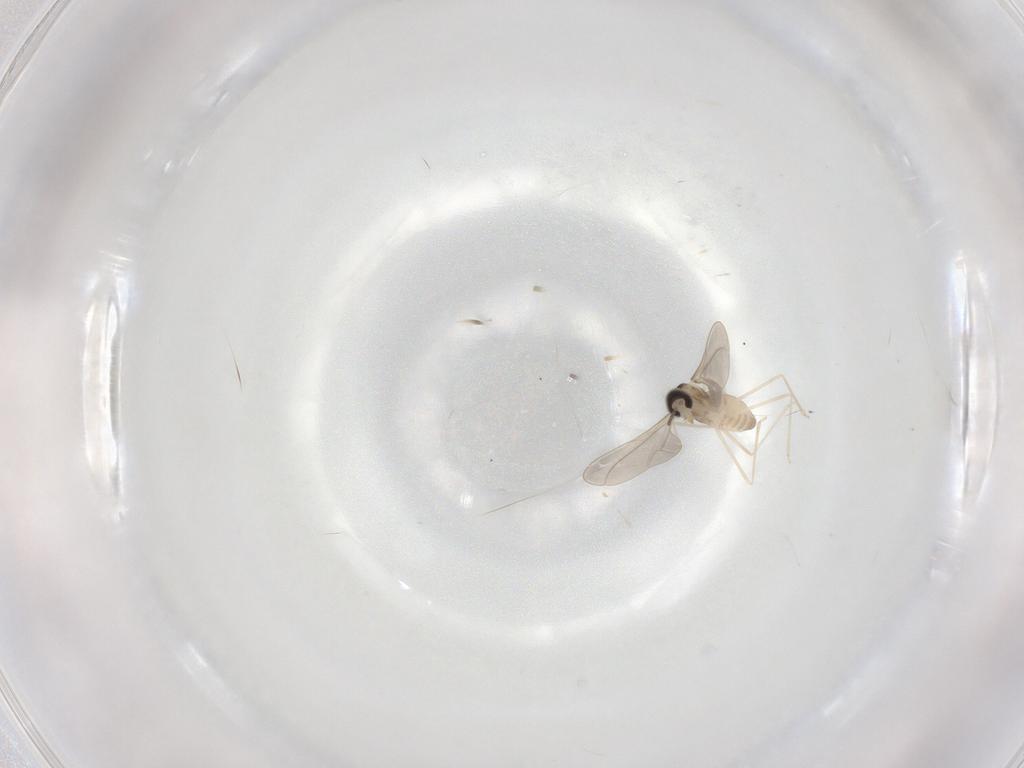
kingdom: Animalia
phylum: Arthropoda
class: Insecta
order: Diptera
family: Cecidomyiidae
